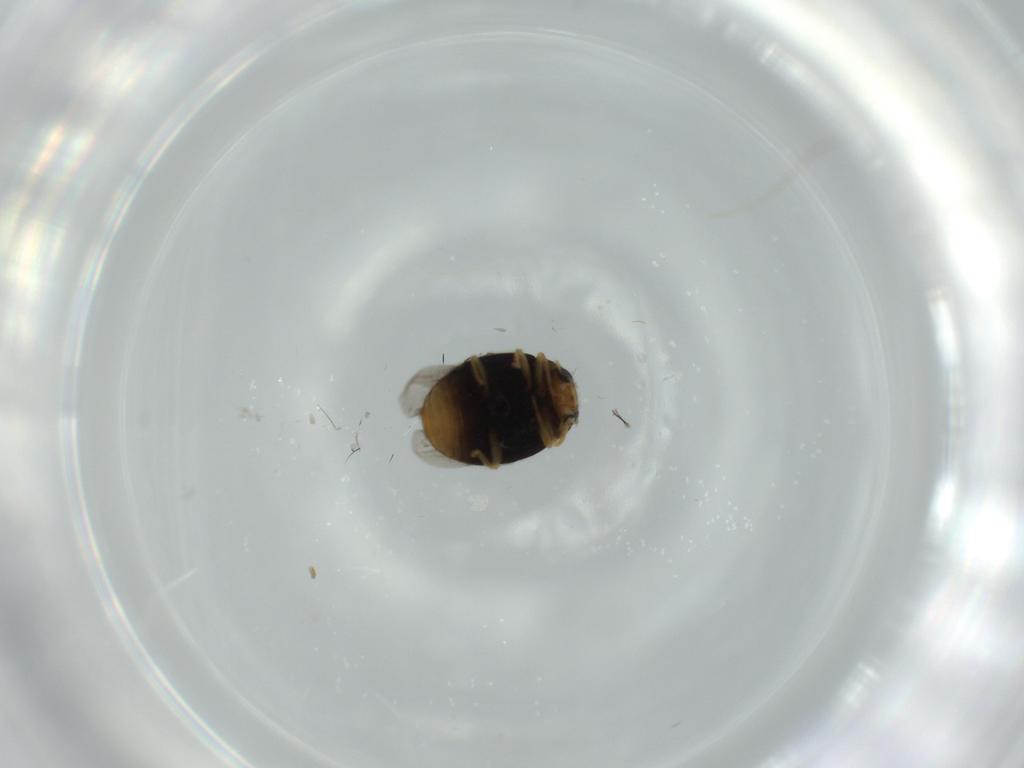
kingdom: Animalia
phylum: Arthropoda
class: Insecta
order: Coleoptera
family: Coccinellidae
